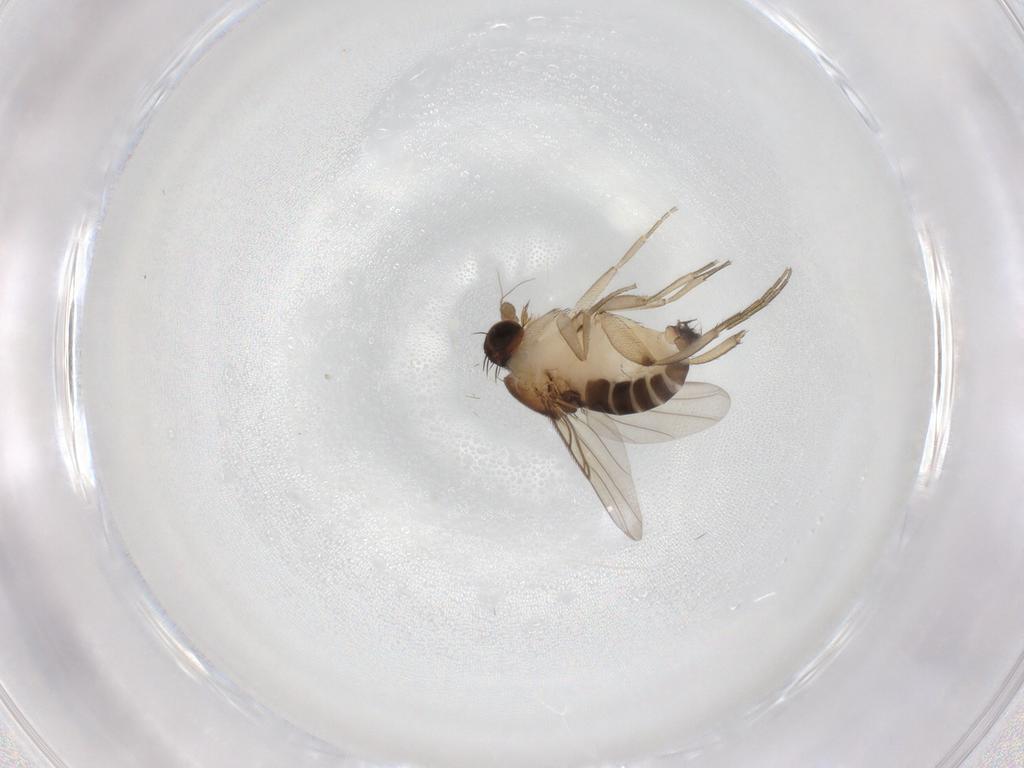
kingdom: Animalia
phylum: Arthropoda
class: Insecta
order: Diptera
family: Phoridae
